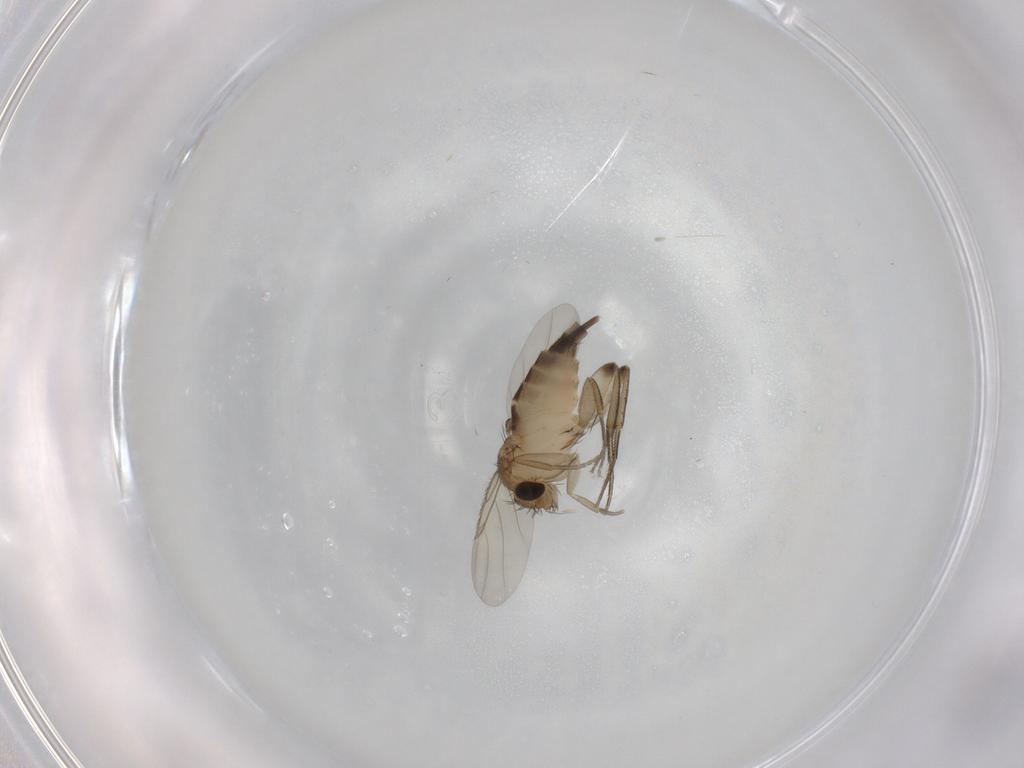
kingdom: Animalia
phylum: Arthropoda
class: Insecta
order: Diptera
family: Phoridae
